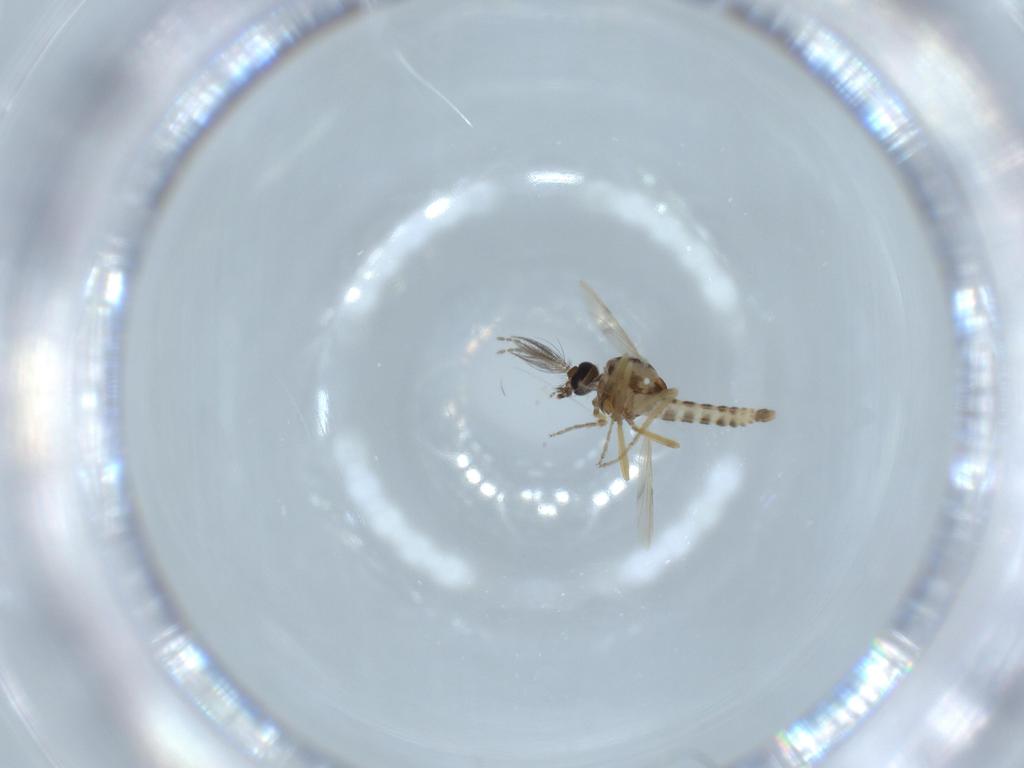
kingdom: Animalia
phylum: Arthropoda
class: Insecta
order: Diptera
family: Ceratopogonidae
